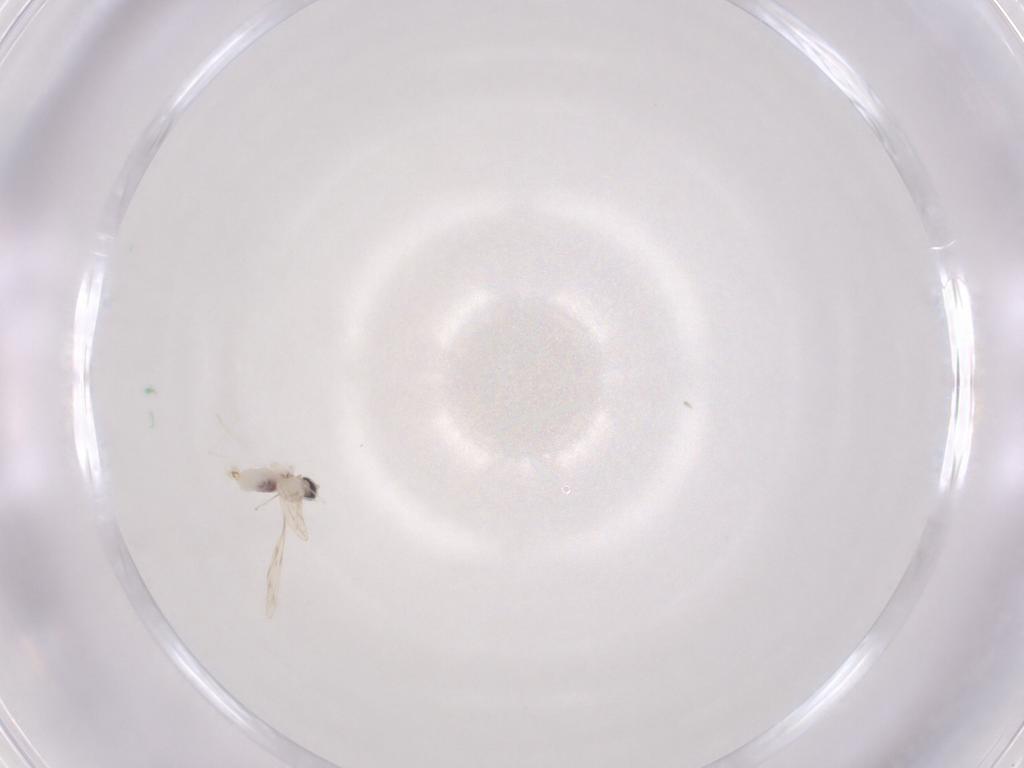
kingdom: Animalia
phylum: Arthropoda
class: Insecta
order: Diptera
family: Cecidomyiidae
